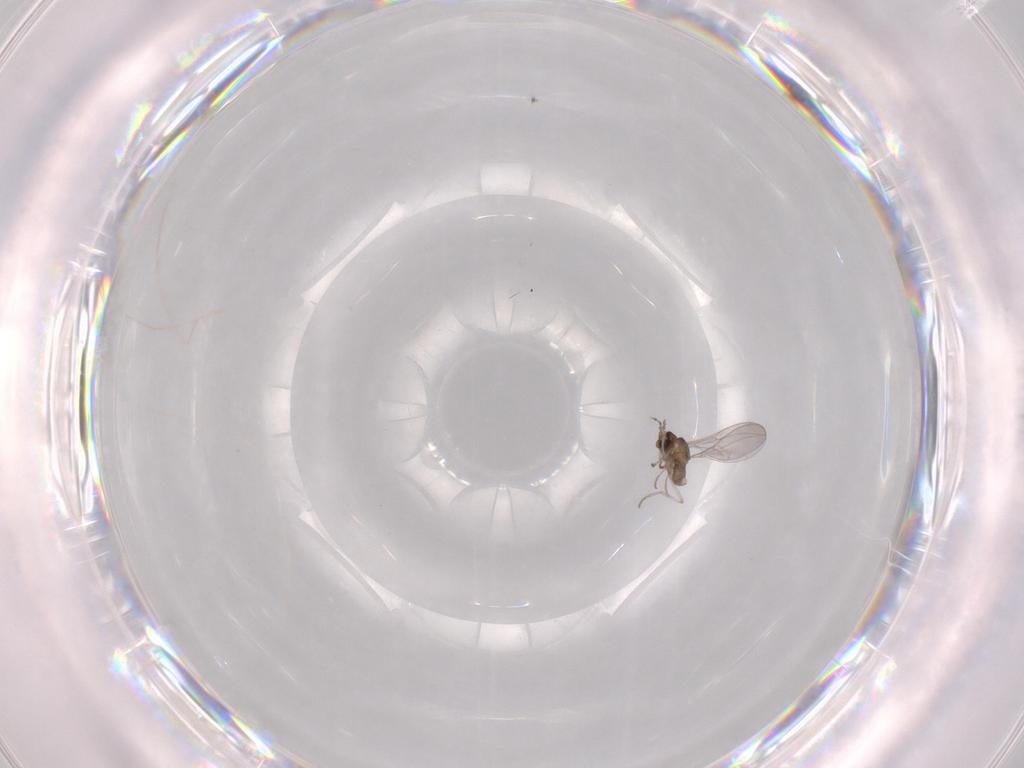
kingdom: Animalia
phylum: Arthropoda
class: Insecta
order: Diptera
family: Cecidomyiidae
